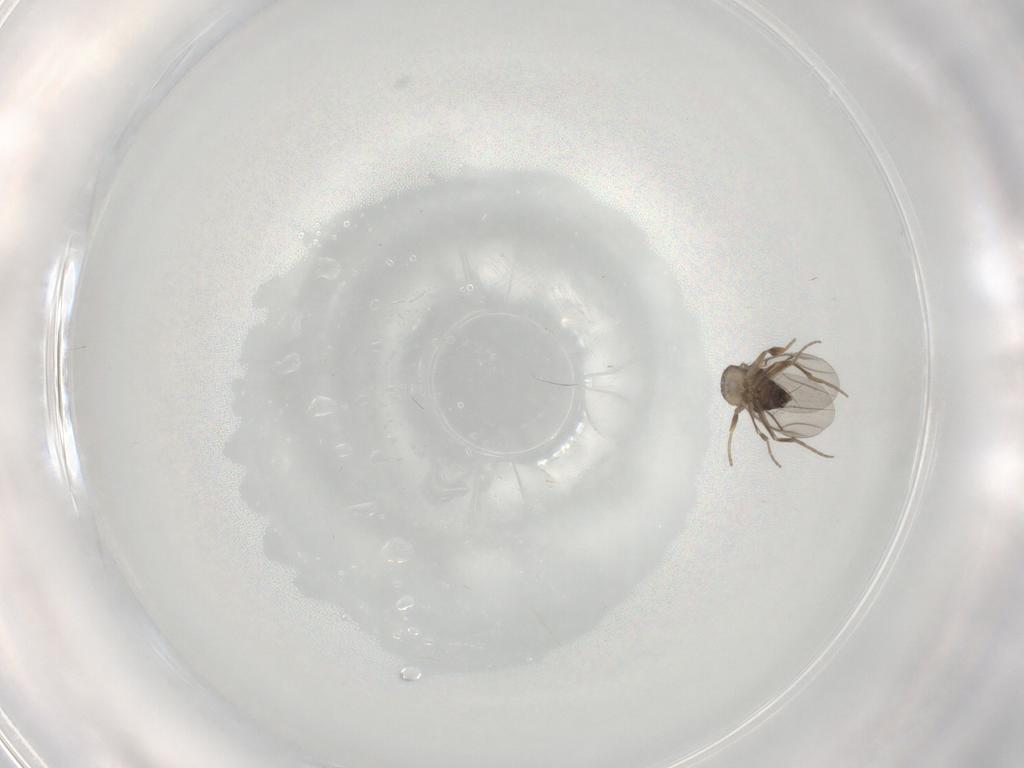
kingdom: Animalia
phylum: Arthropoda
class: Insecta
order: Diptera
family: Phoridae
